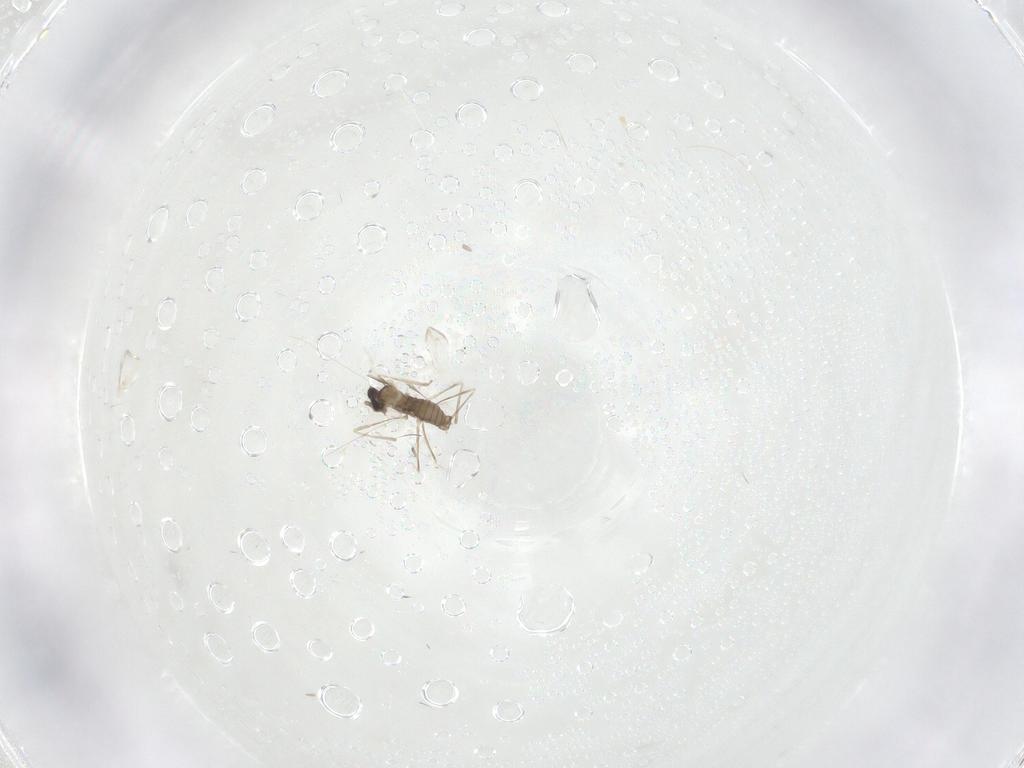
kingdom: Animalia
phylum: Arthropoda
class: Insecta
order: Diptera
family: Cecidomyiidae
